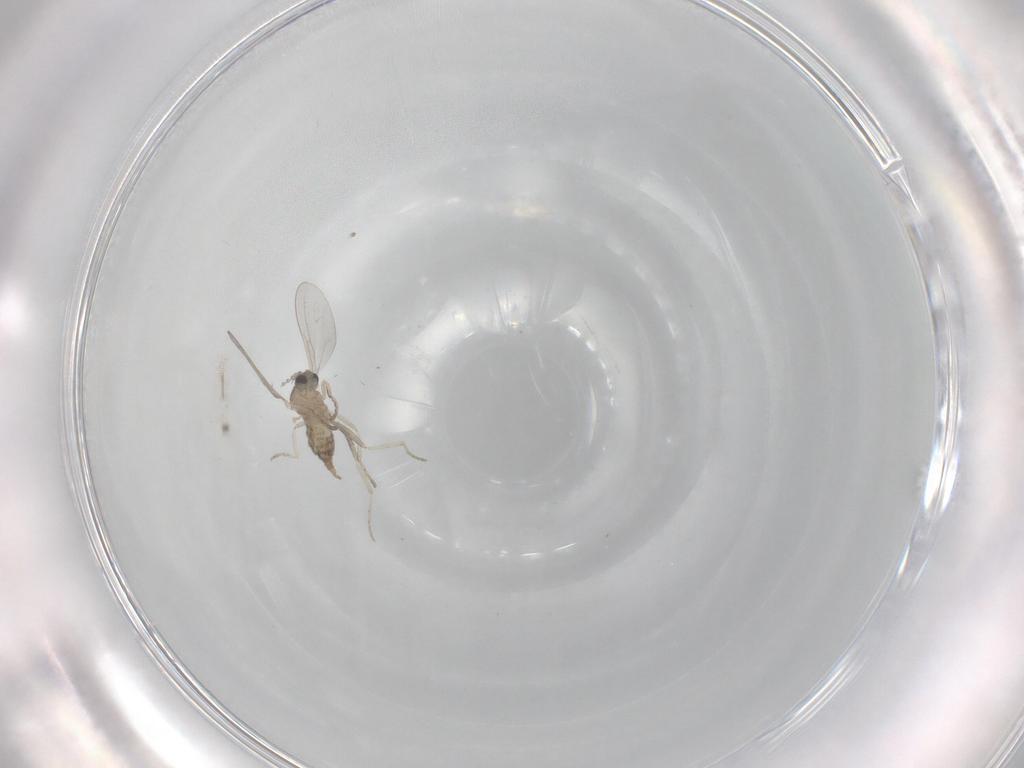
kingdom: Animalia
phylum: Arthropoda
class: Insecta
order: Diptera
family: Cecidomyiidae
